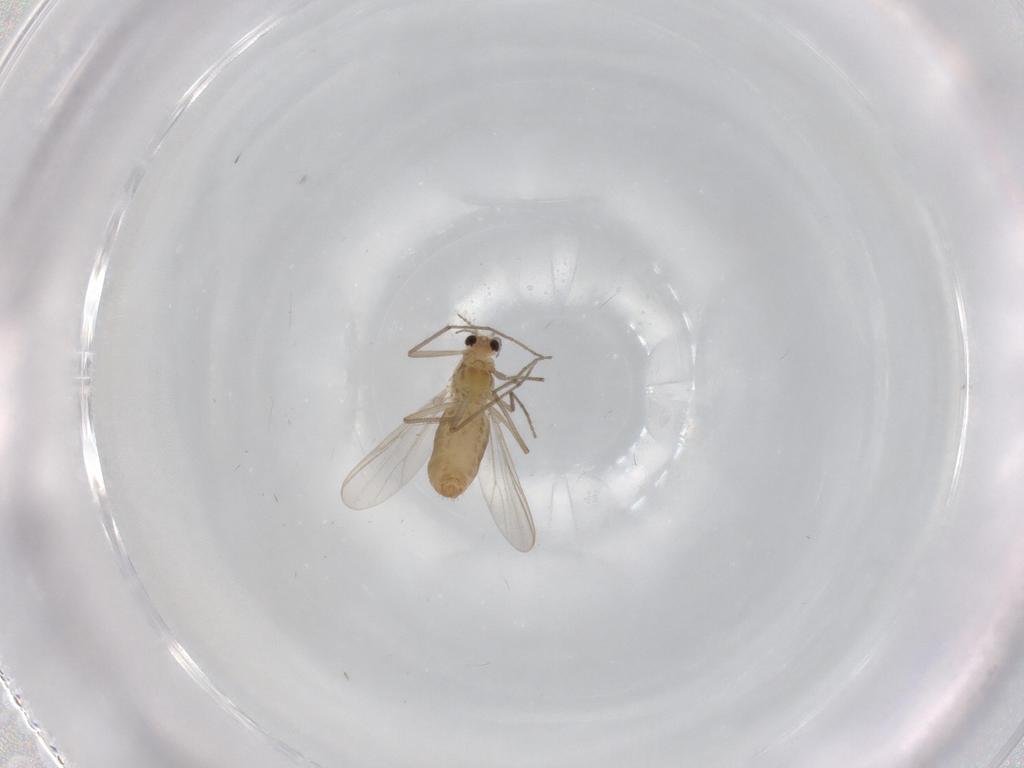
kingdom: Animalia
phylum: Arthropoda
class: Insecta
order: Diptera
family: Chironomidae
